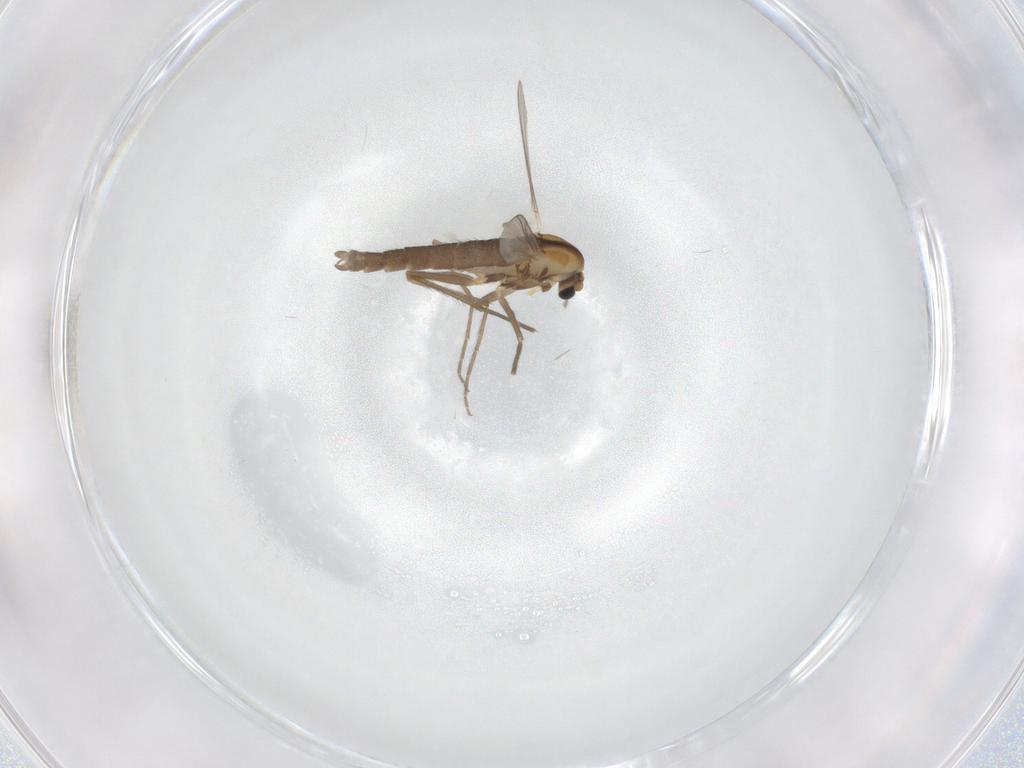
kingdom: Animalia
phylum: Arthropoda
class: Insecta
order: Diptera
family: Chironomidae
